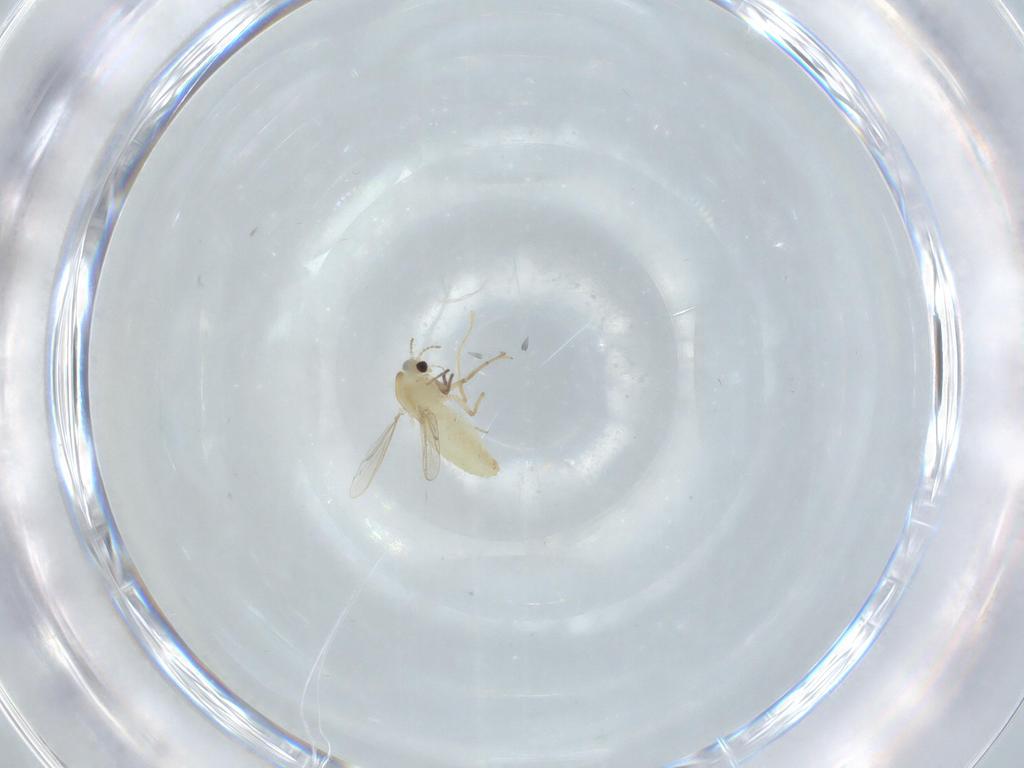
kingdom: Animalia
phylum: Arthropoda
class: Insecta
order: Diptera
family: Chironomidae
